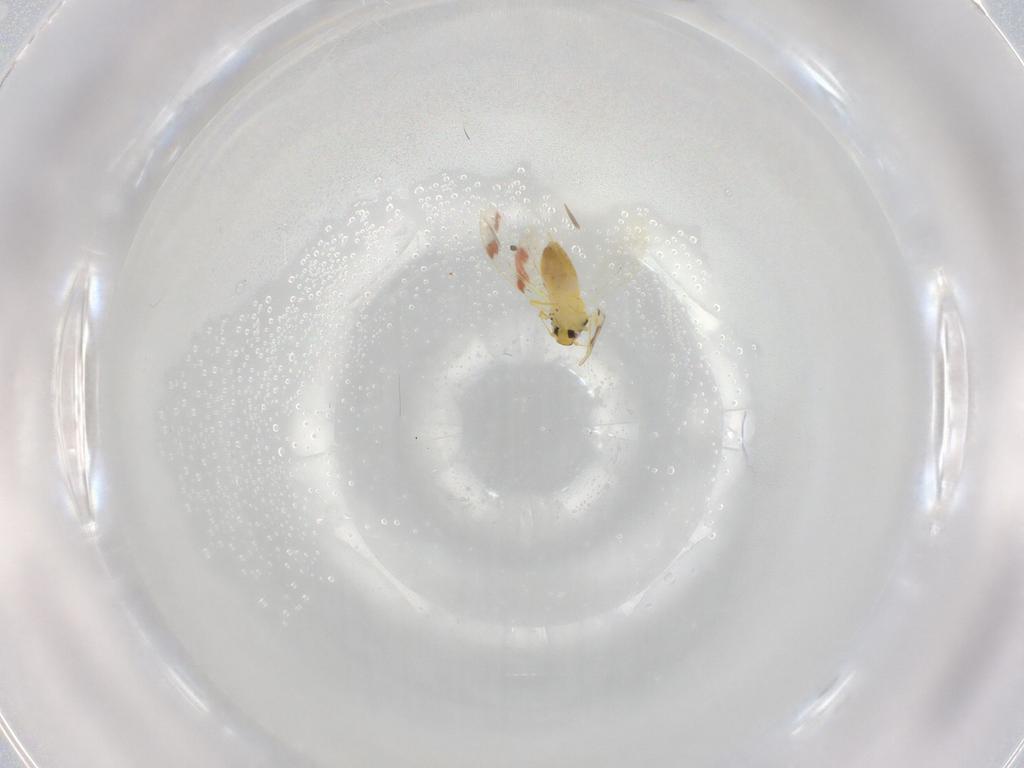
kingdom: Animalia
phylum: Arthropoda
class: Insecta
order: Hemiptera
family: Aleyrodidae
